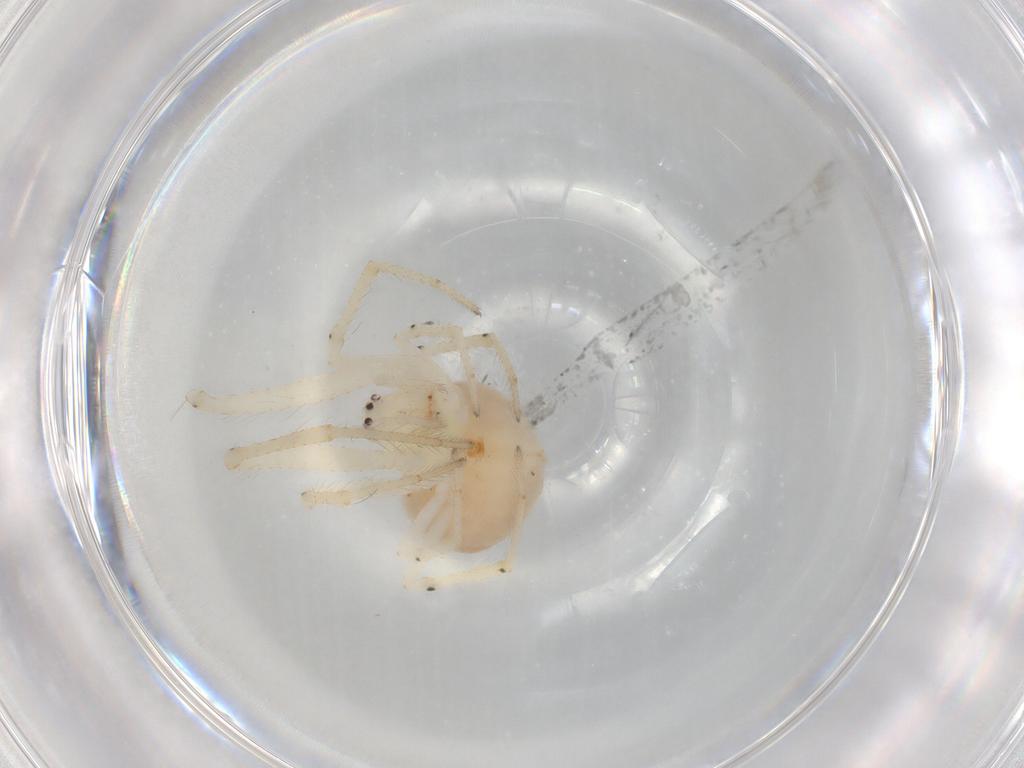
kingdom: Animalia
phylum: Arthropoda
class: Arachnida
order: Araneae
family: Theridiidae
